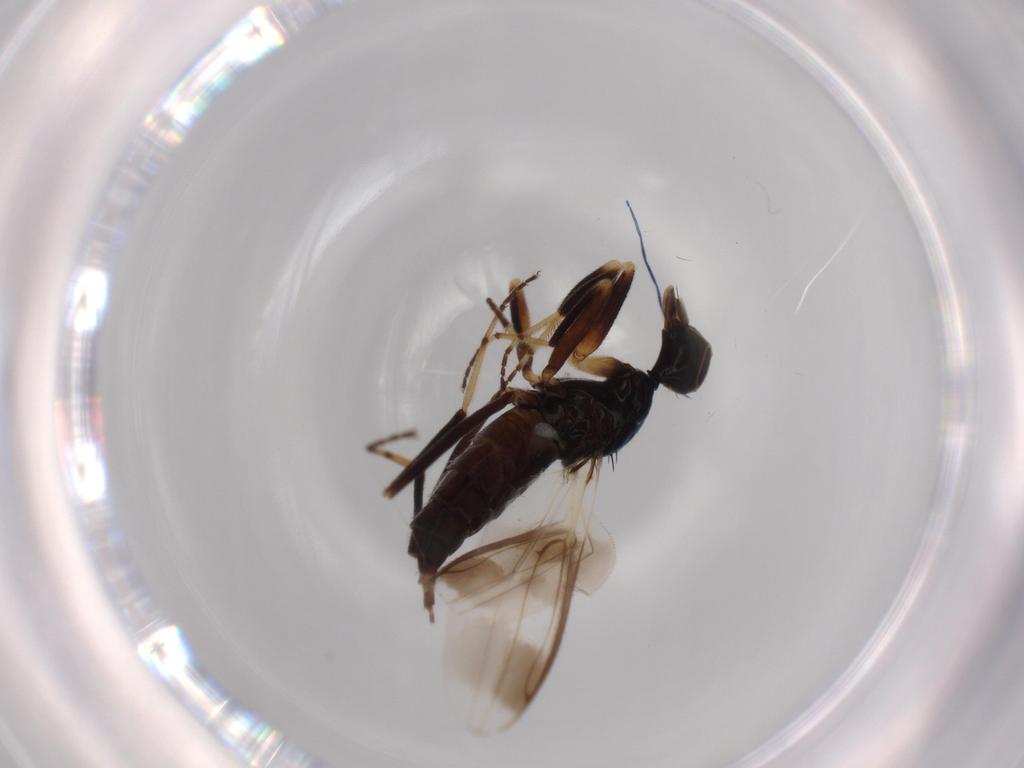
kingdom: Animalia
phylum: Arthropoda
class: Insecta
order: Diptera
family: Hybotidae
